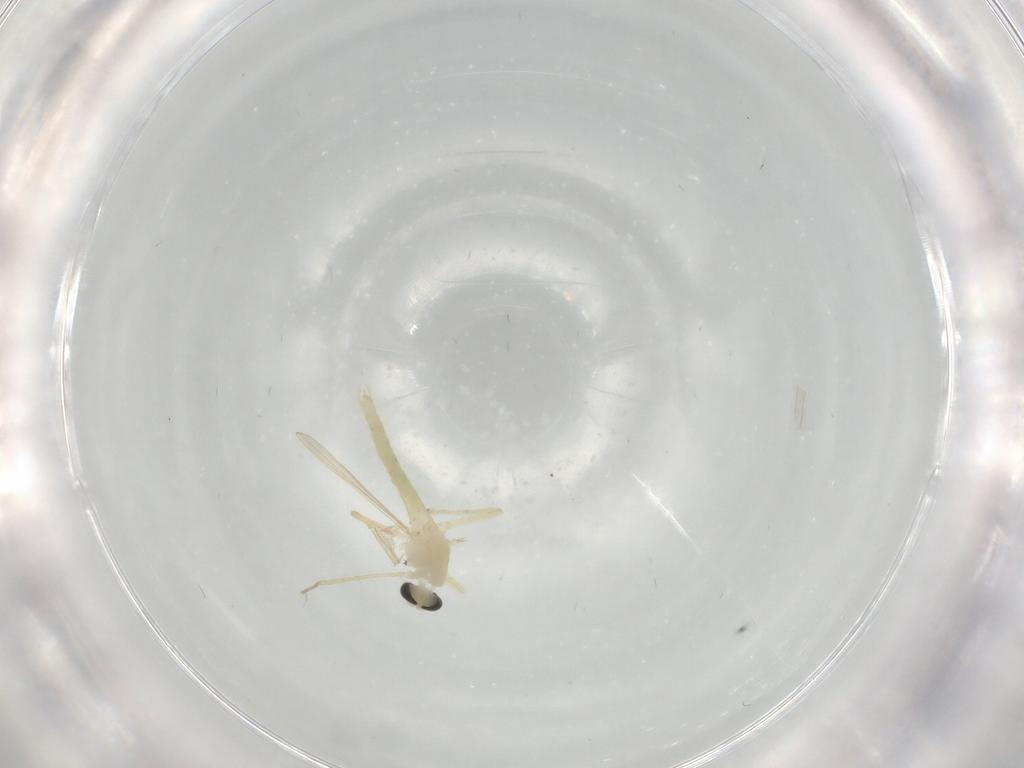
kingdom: Animalia
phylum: Arthropoda
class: Insecta
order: Diptera
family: Chironomidae
